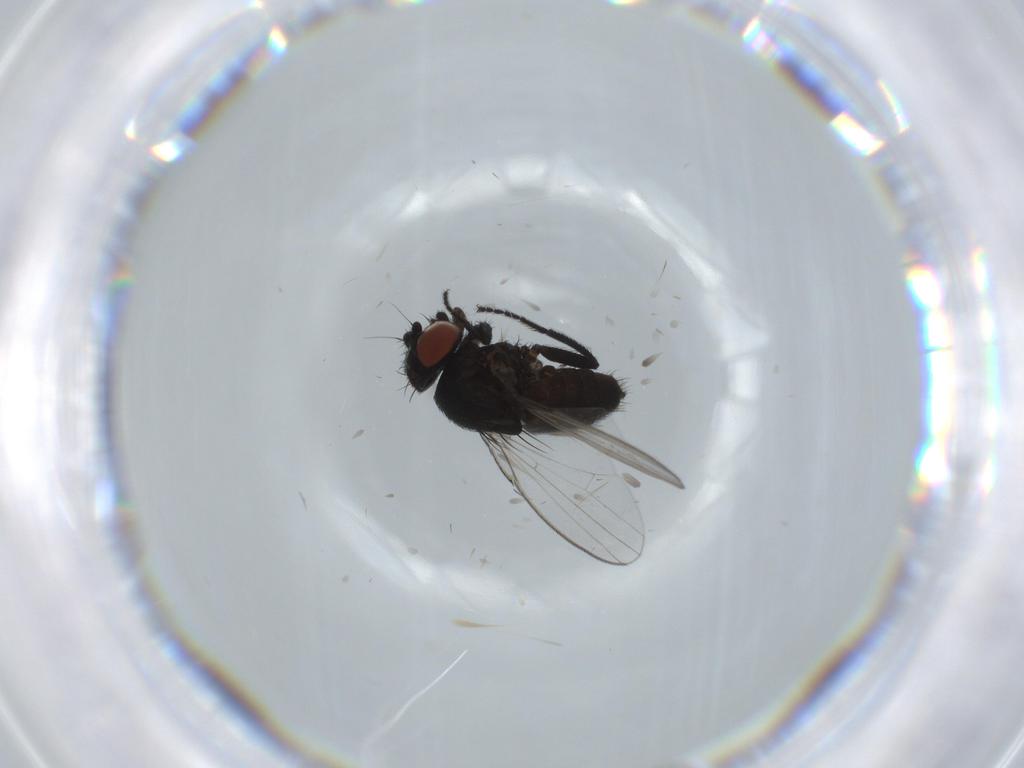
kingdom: Animalia
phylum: Arthropoda
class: Insecta
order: Diptera
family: Milichiidae
